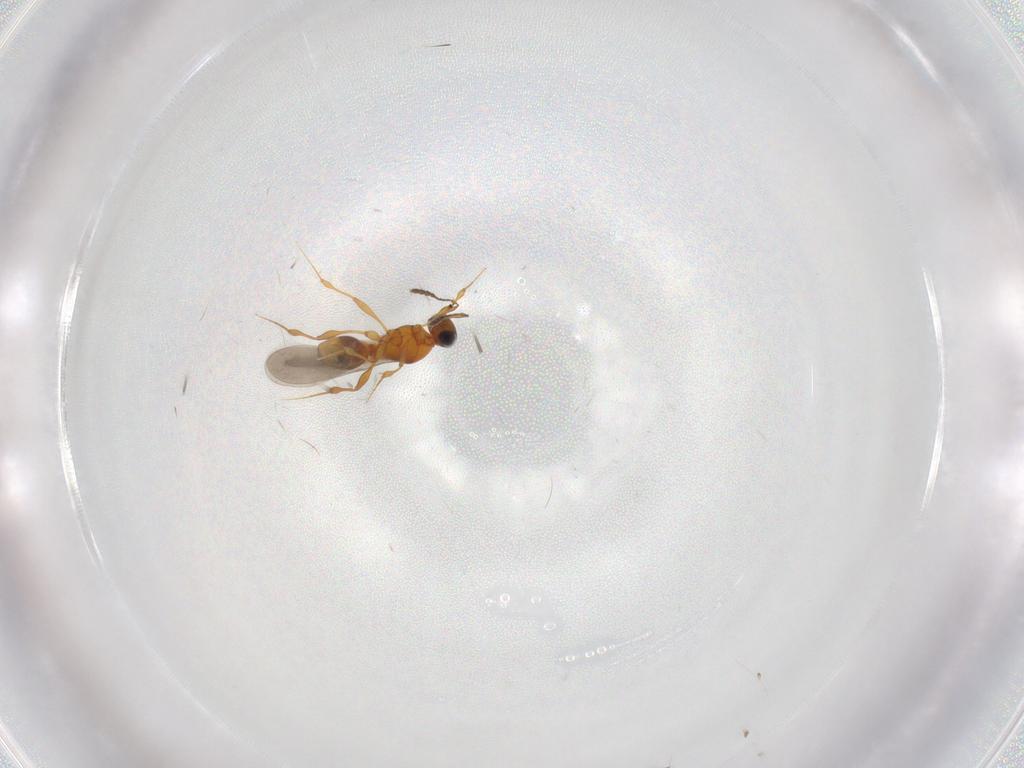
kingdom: Animalia
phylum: Arthropoda
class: Insecta
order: Hymenoptera
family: Platygastridae
